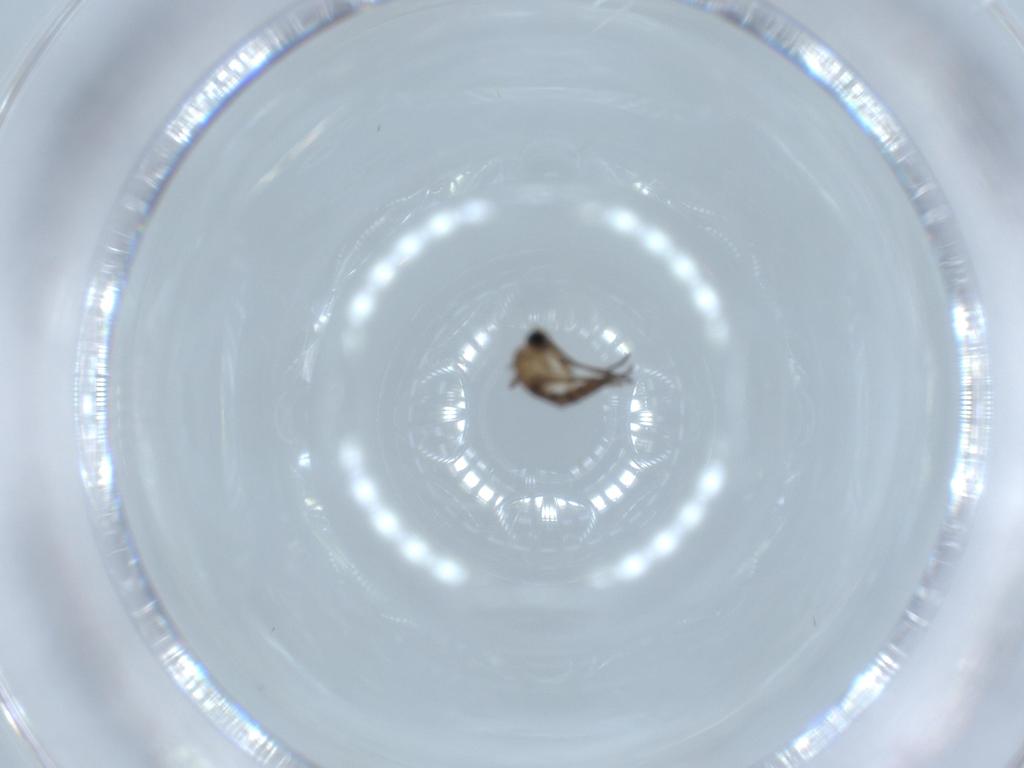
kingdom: Animalia
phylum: Arthropoda
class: Insecta
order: Diptera
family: Sciaridae
